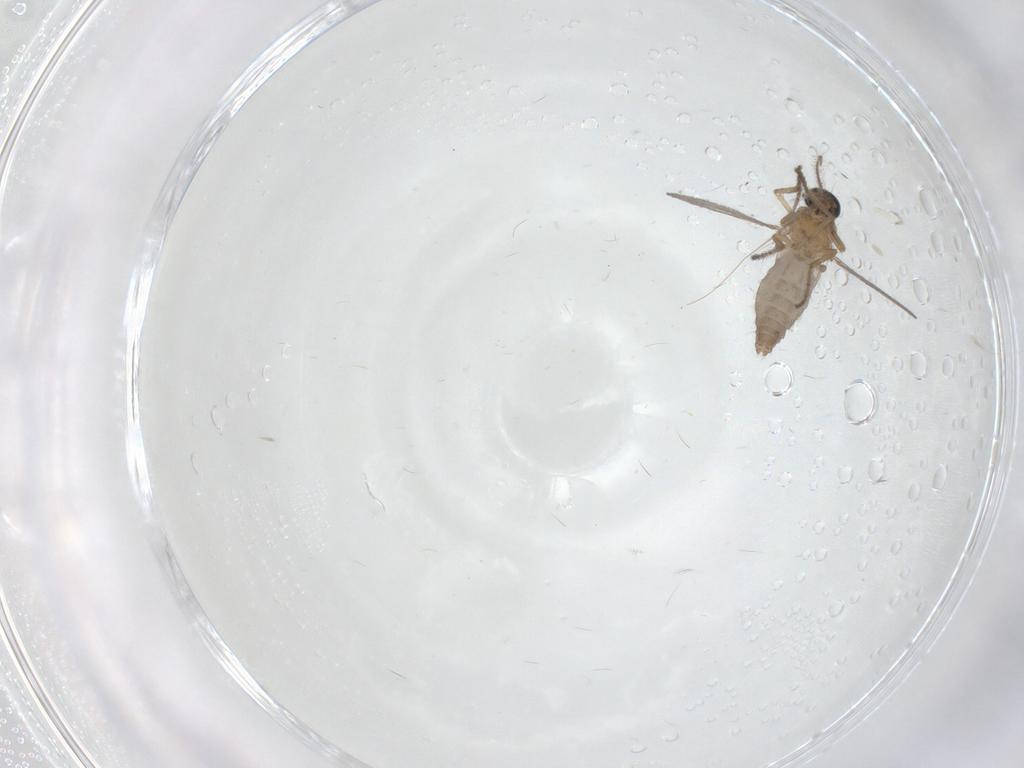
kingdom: Animalia
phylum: Arthropoda
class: Insecta
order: Diptera
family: Ceratopogonidae
